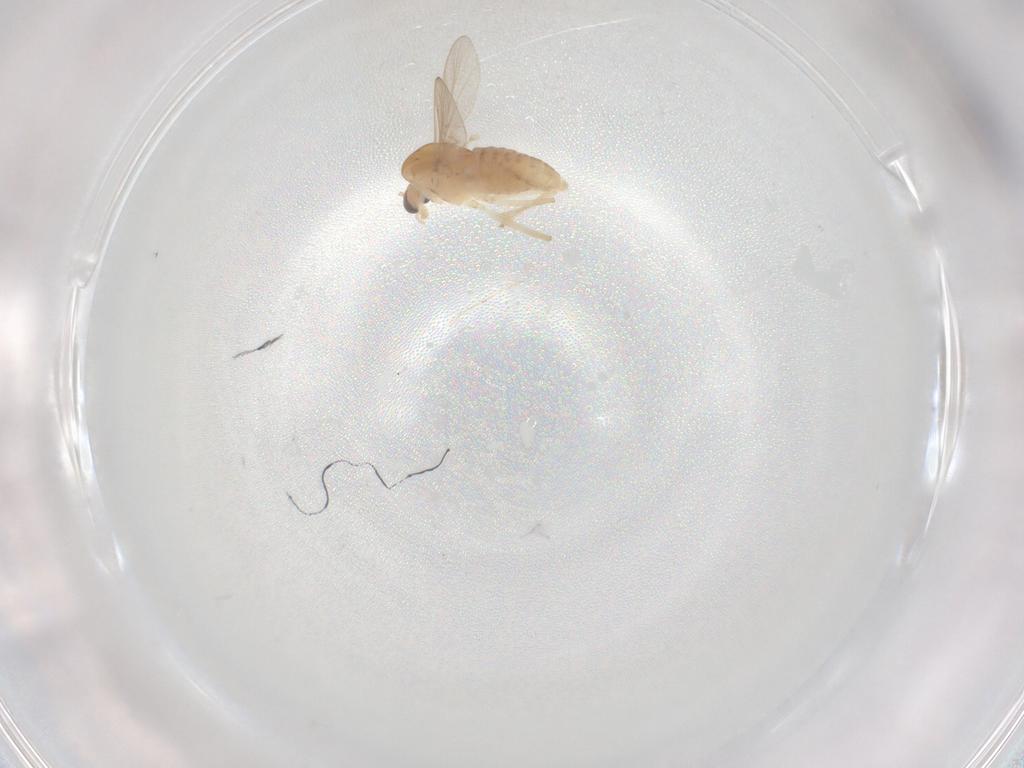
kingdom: Animalia
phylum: Arthropoda
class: Insecta
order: Diptera
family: Chironomidae
